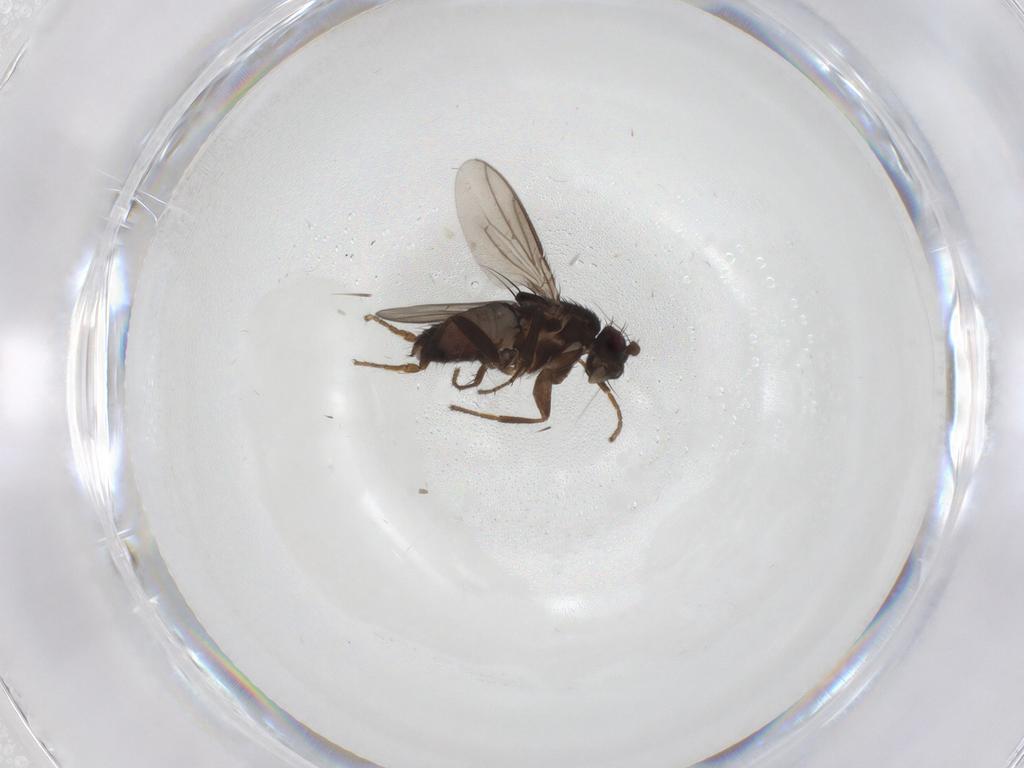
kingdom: Animalia
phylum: Arthropoda
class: Insecta
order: Diptera
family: Sphaeroceridae
